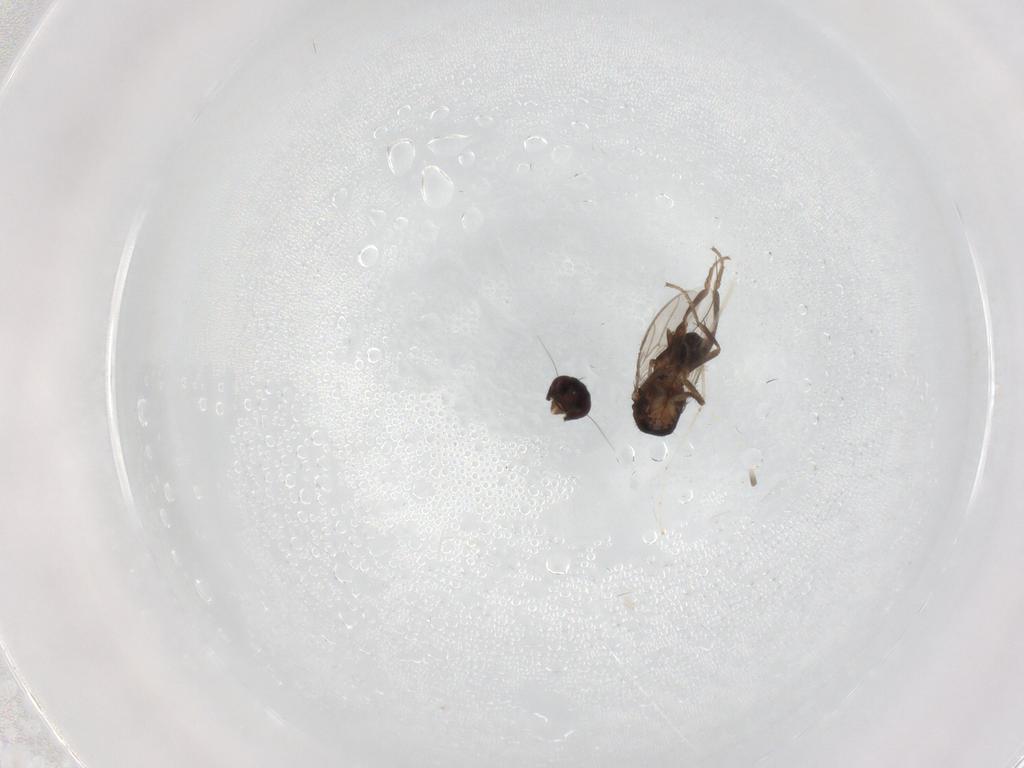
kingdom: Animalia
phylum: Arthropoda
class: Insecta
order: Diptera
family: Sphaeroceridae
